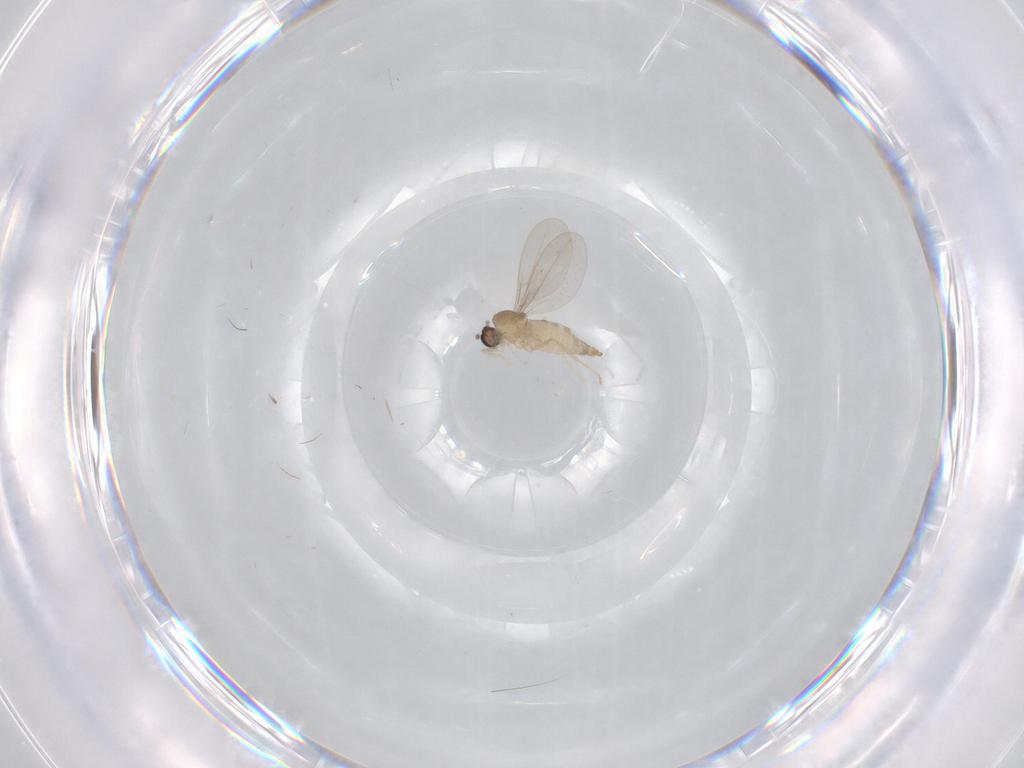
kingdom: Animalia
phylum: Arthropoda
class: Insecta
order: Diptera
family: Cecidomyiidae
